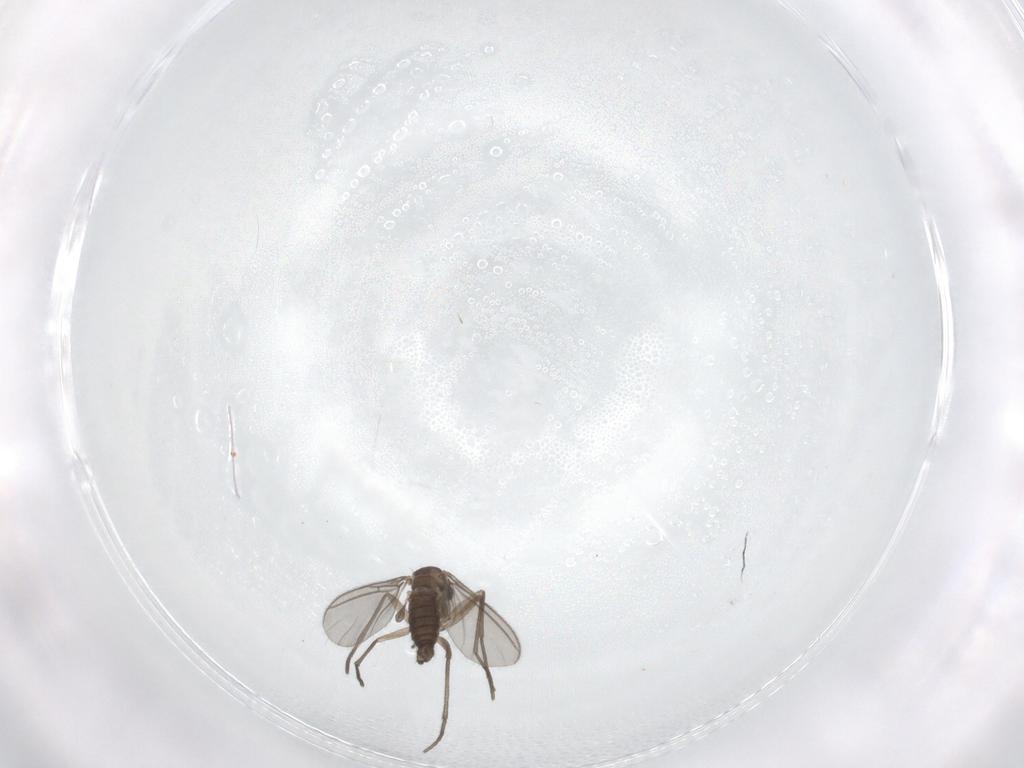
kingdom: Animalia
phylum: Arthropoda
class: Insecta
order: Diptera
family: Sciaridae
